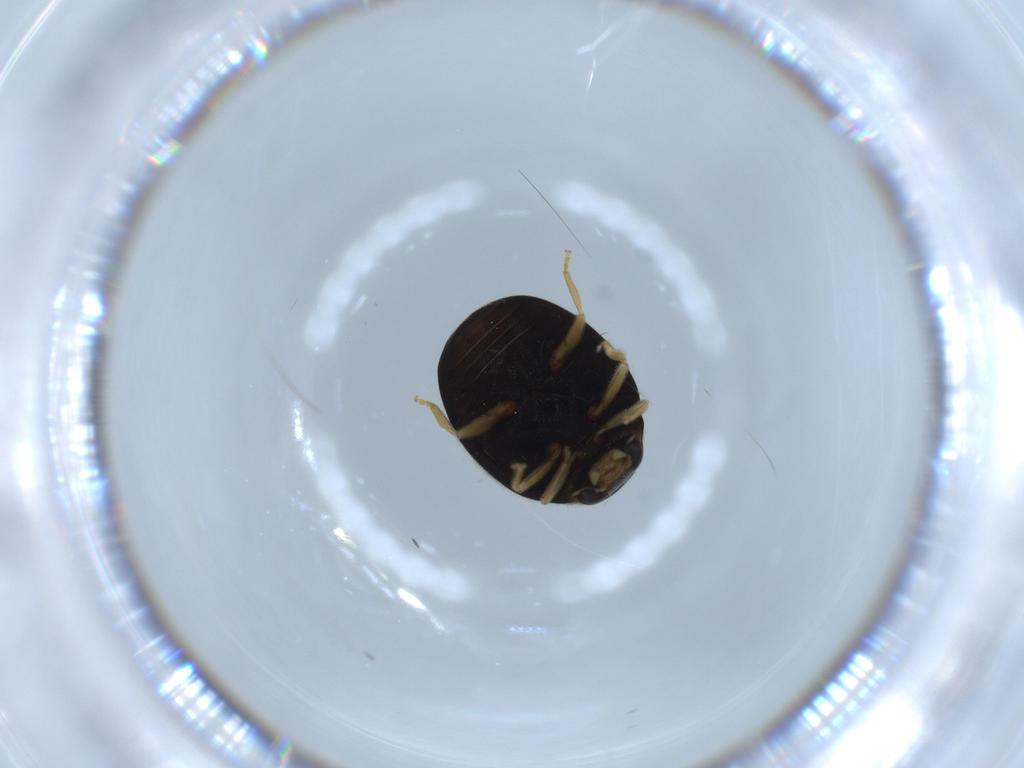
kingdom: Animalia
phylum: Arthropoda
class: Insecta
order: Coleoptera
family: Coccinellidae
